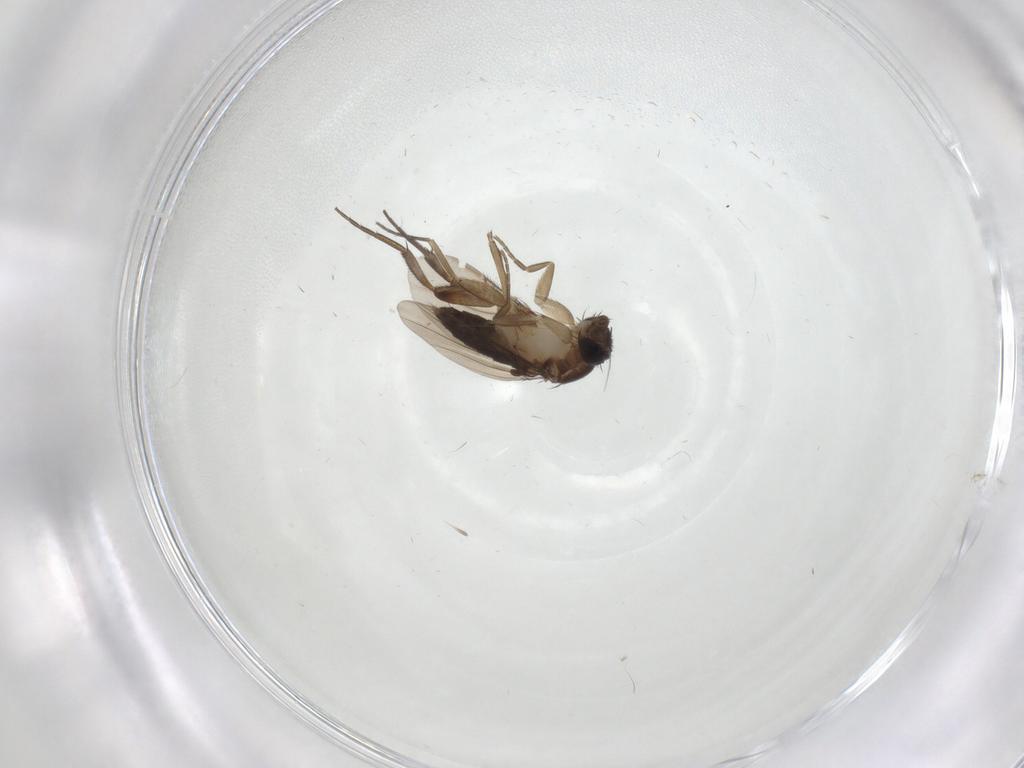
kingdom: Animalia
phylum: Arthropoda
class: Insecta
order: Diptera
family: Phoridae
